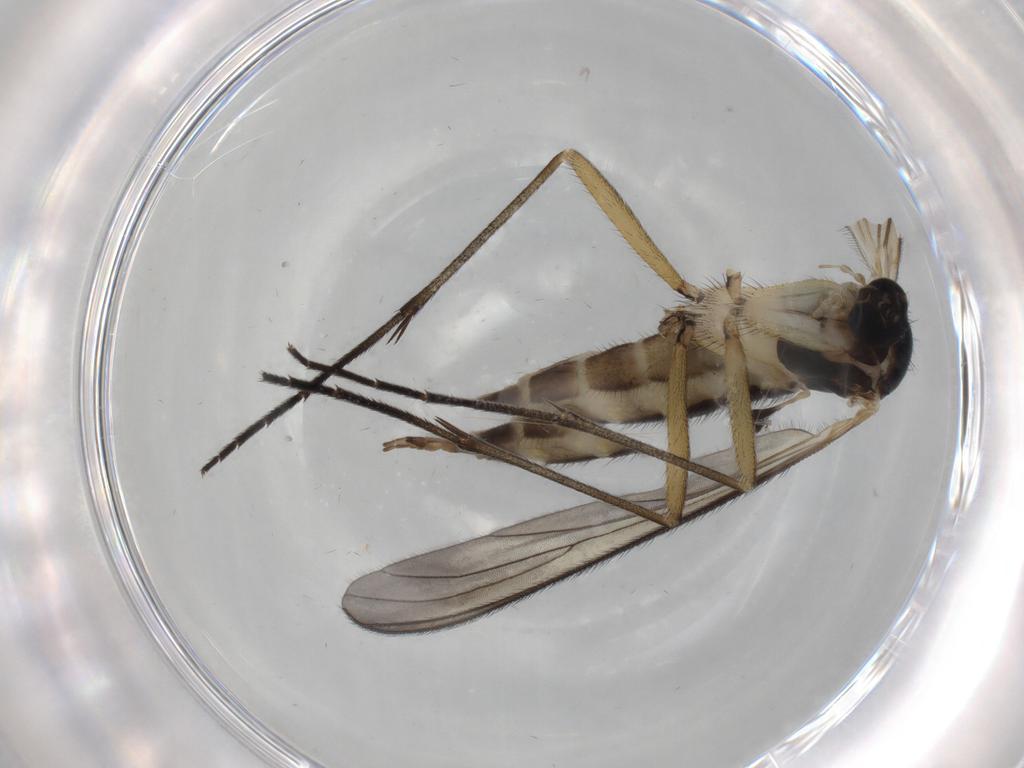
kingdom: Animalia
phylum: Arthropoda
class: Insecta
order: Diptera
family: Sciaridae
